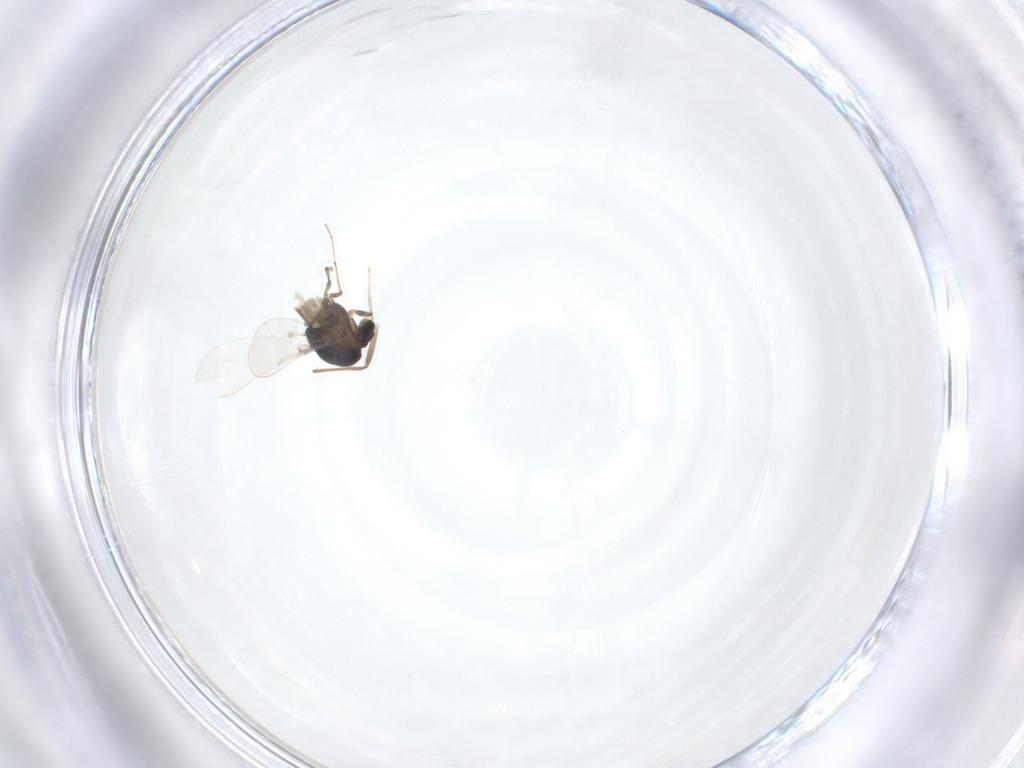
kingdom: Animalia
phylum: Arthropoda
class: Insecta
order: Diptera
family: Chironomidae
